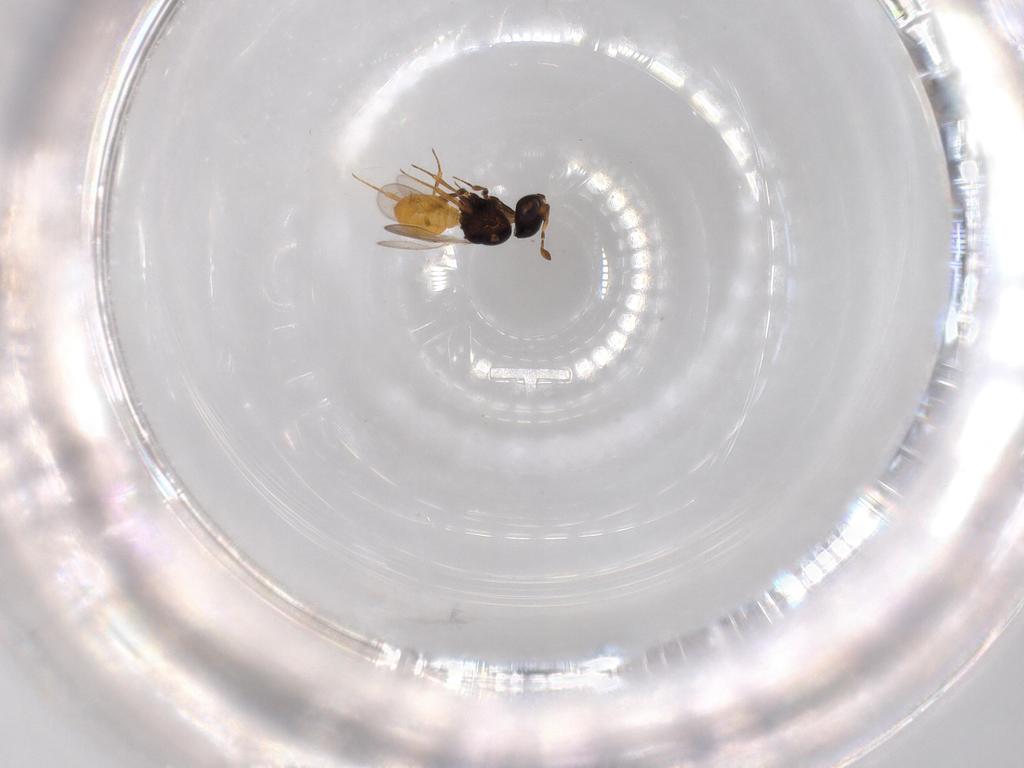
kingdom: Animalia
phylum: Arthropoda
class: Insecta
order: Hymenoptera
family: Scelionidae
